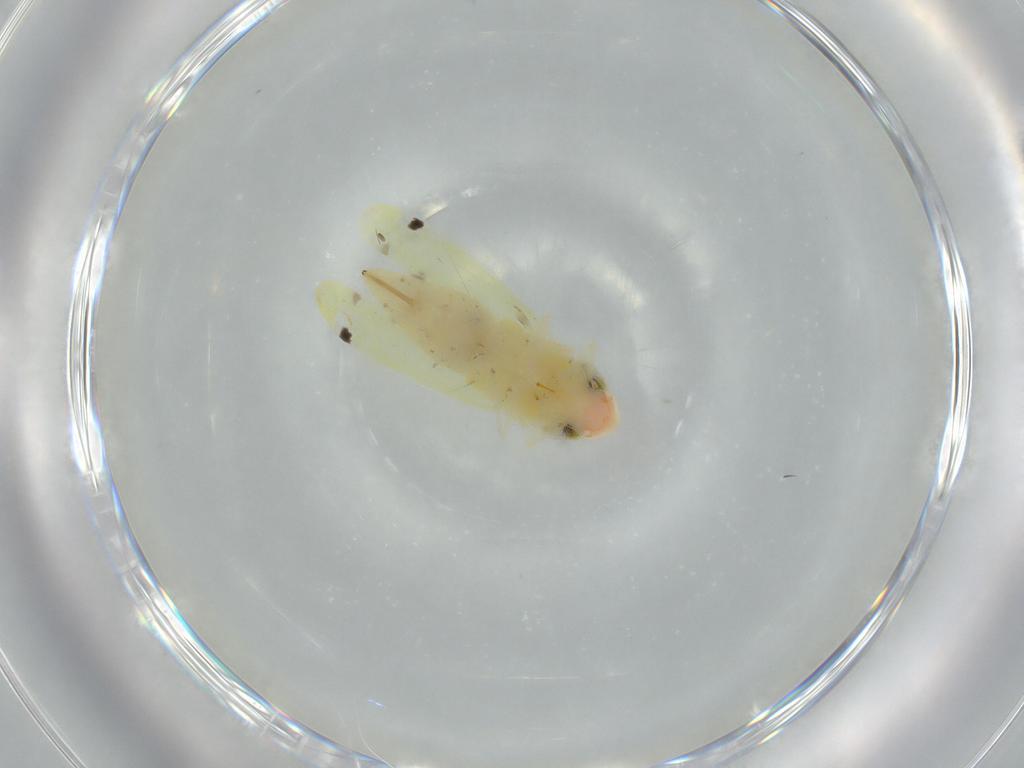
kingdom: Animalia
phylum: Arthropoda
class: Insecta
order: Hemiptera
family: Cicadellidae
